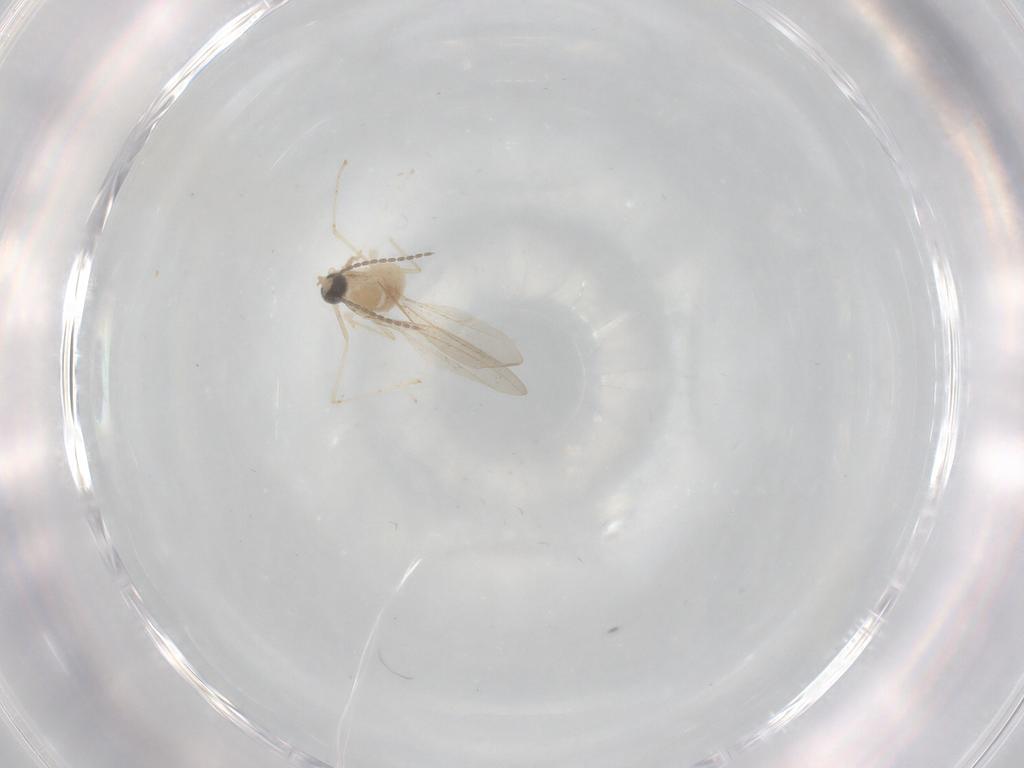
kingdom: Animalia
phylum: Arthropoda
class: Insecta
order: Diptera
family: Cecidomyiidae
